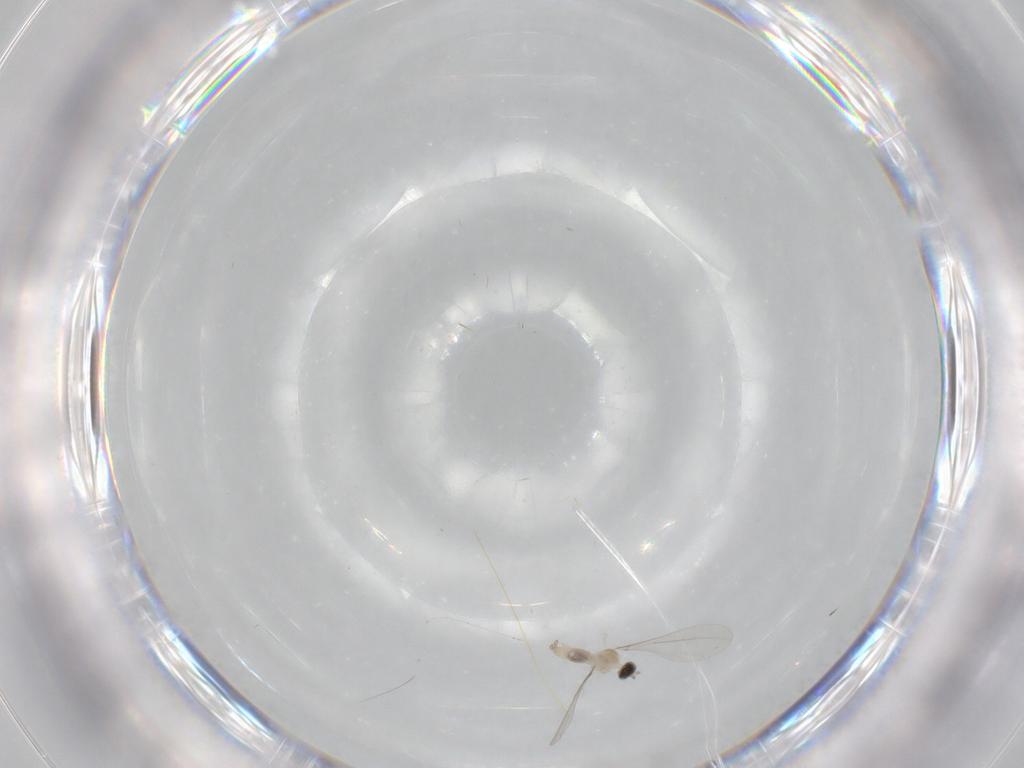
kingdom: Animalia
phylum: Arthropoda
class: Insecta
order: Diptera
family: Cecidomyiidae
